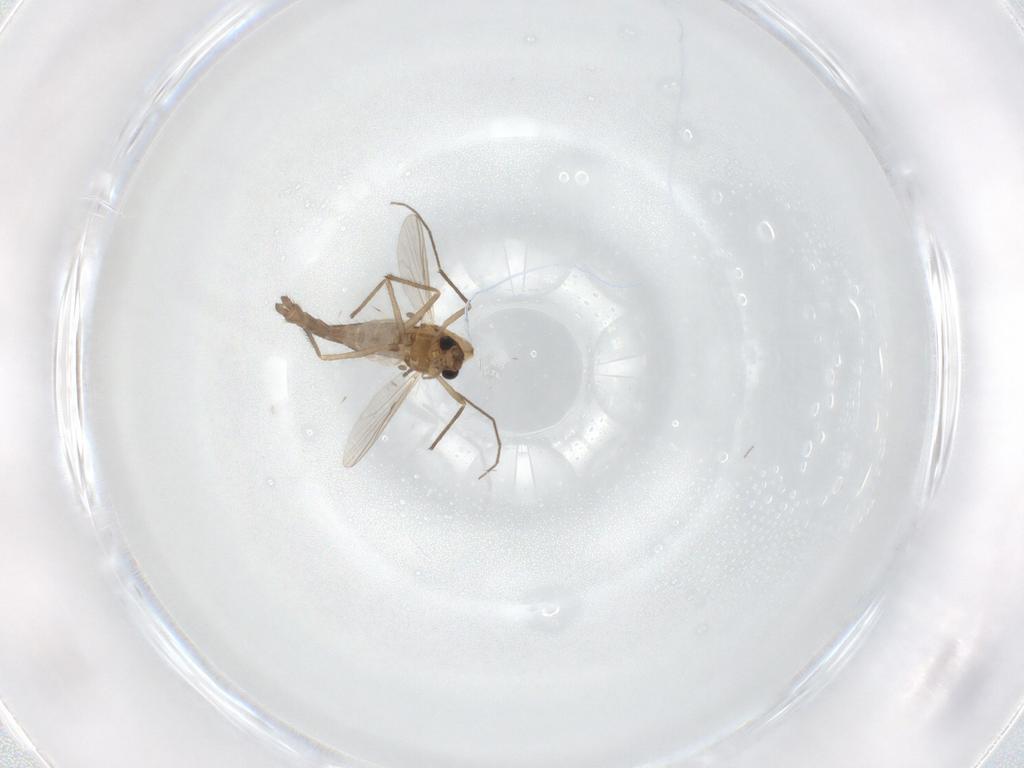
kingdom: Animalia
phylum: Arthropoda
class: Insecta
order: Diptera
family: Chironomidae
